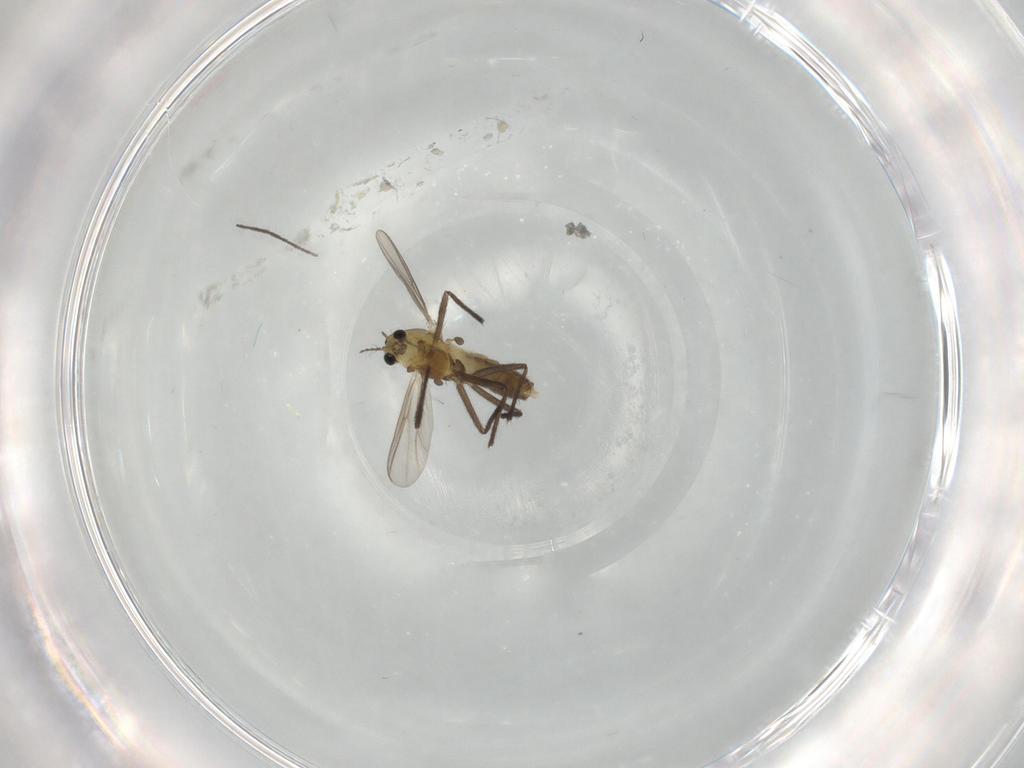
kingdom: Animalia
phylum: Arthropoda
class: Insecta
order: Diptera
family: Chironomidae
